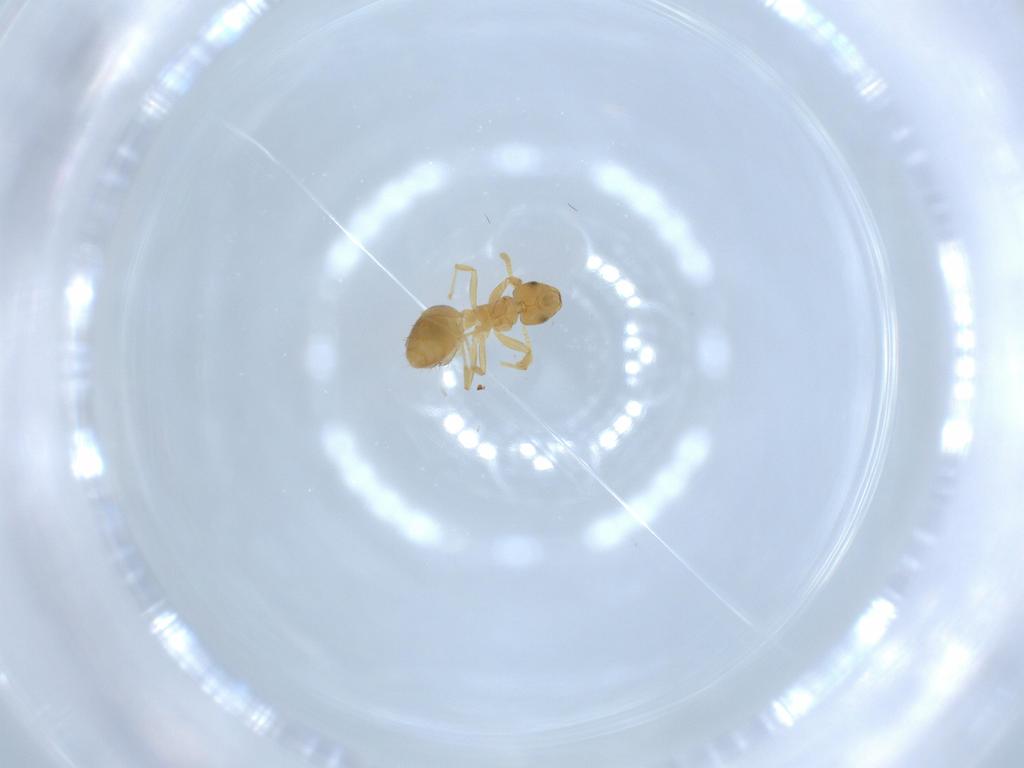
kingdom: Animalia
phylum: Arthropoda
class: Insecta
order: Hymenoptera
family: Formicidae
